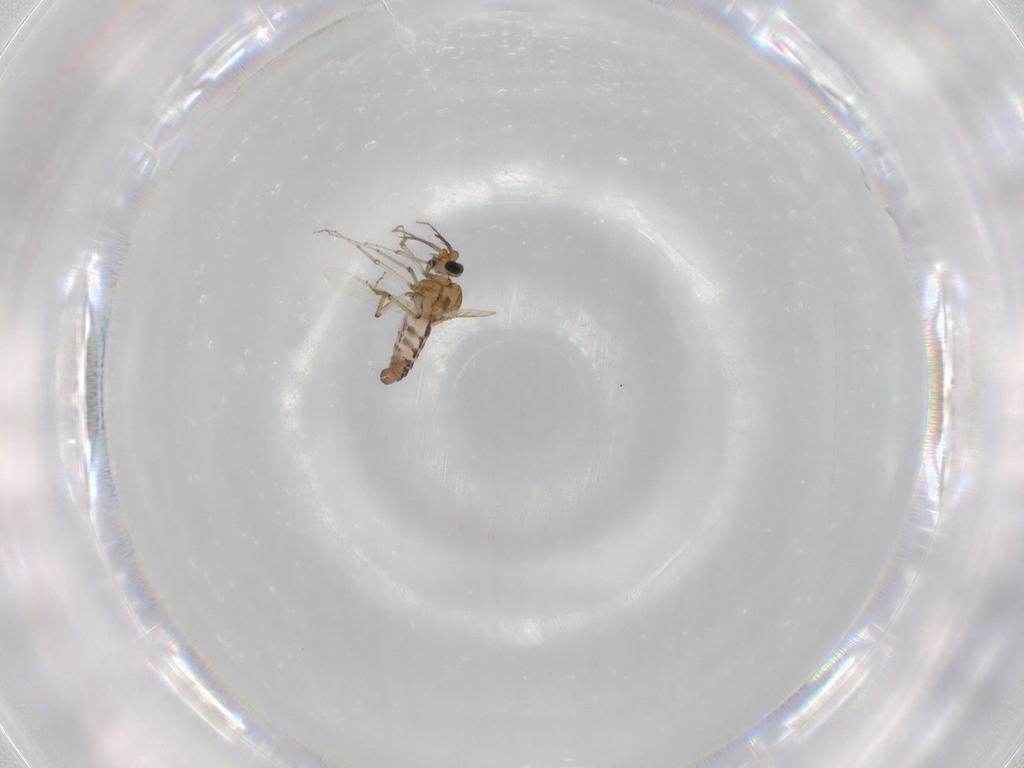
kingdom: Animalia
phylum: Arthropoda
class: Insecta
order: Diptera
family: Ceratopogonidae
